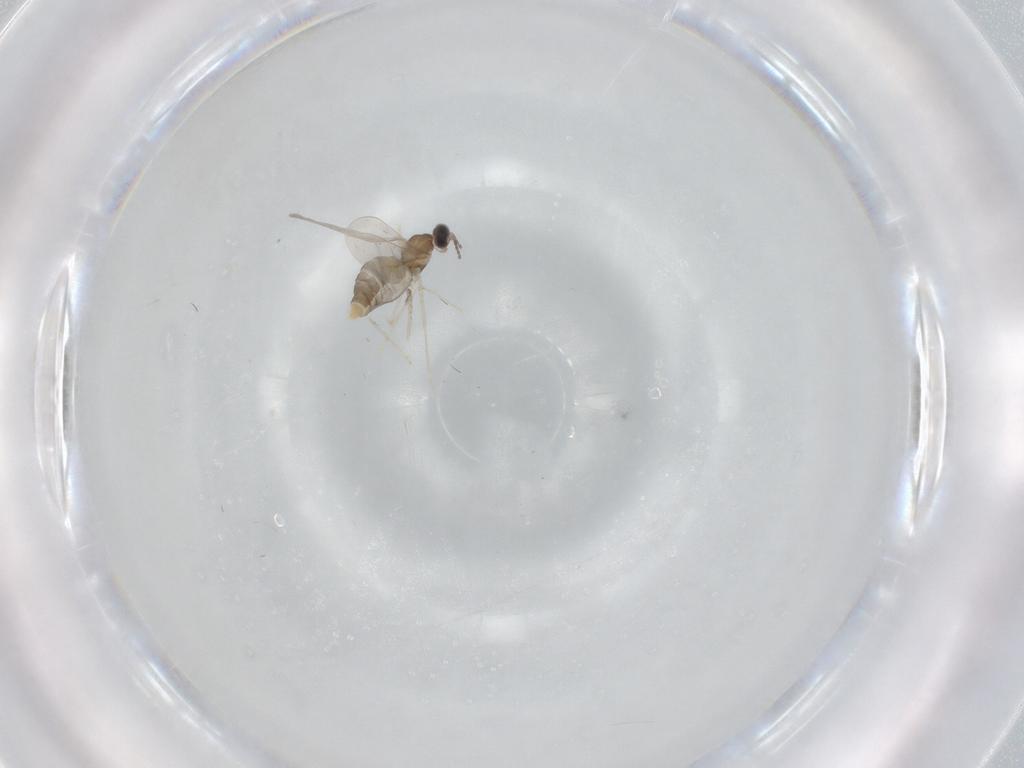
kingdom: Animalia
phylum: Arthropoda
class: Insecta
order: Diptera
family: Cecidomyiidae
